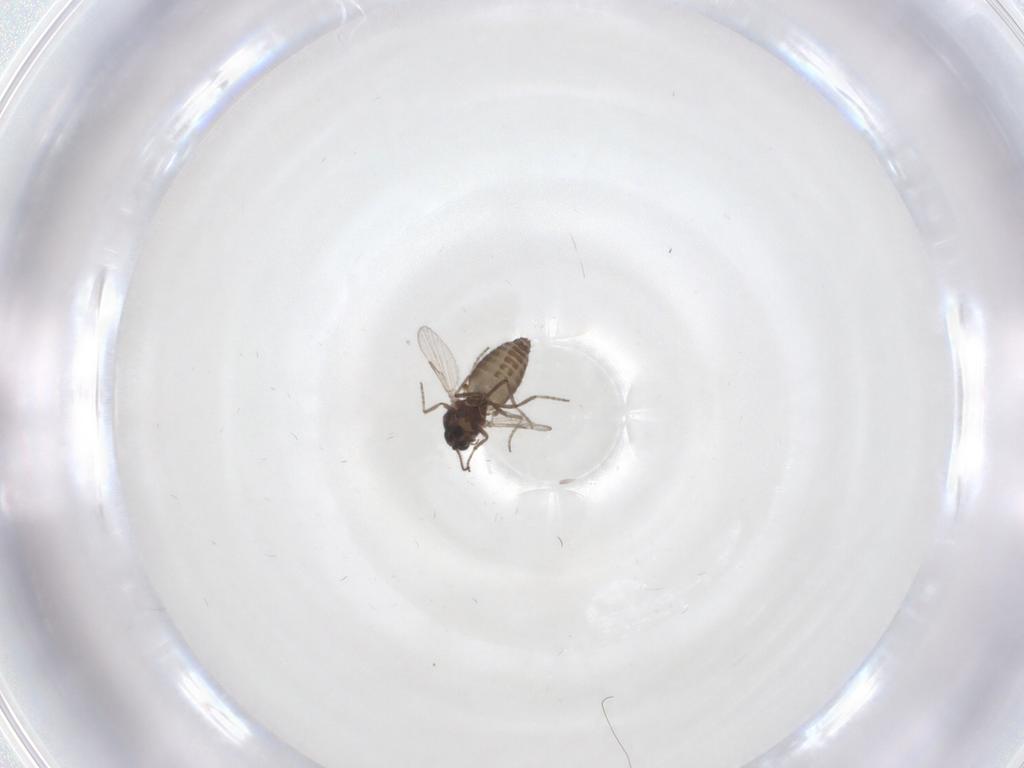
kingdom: Animalia
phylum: Arthropoda
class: Insecta
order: Diptera
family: Ceratopogonidae
